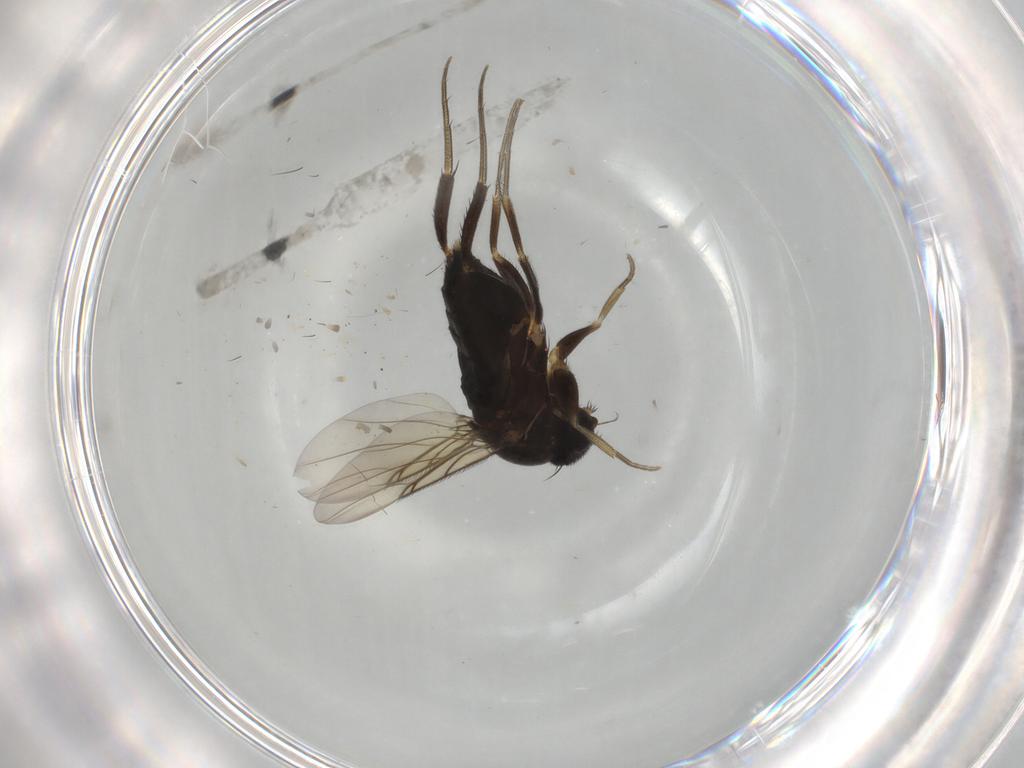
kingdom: Animalia
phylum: Arthropoda
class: Insecta
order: Diptera
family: Phoridae
